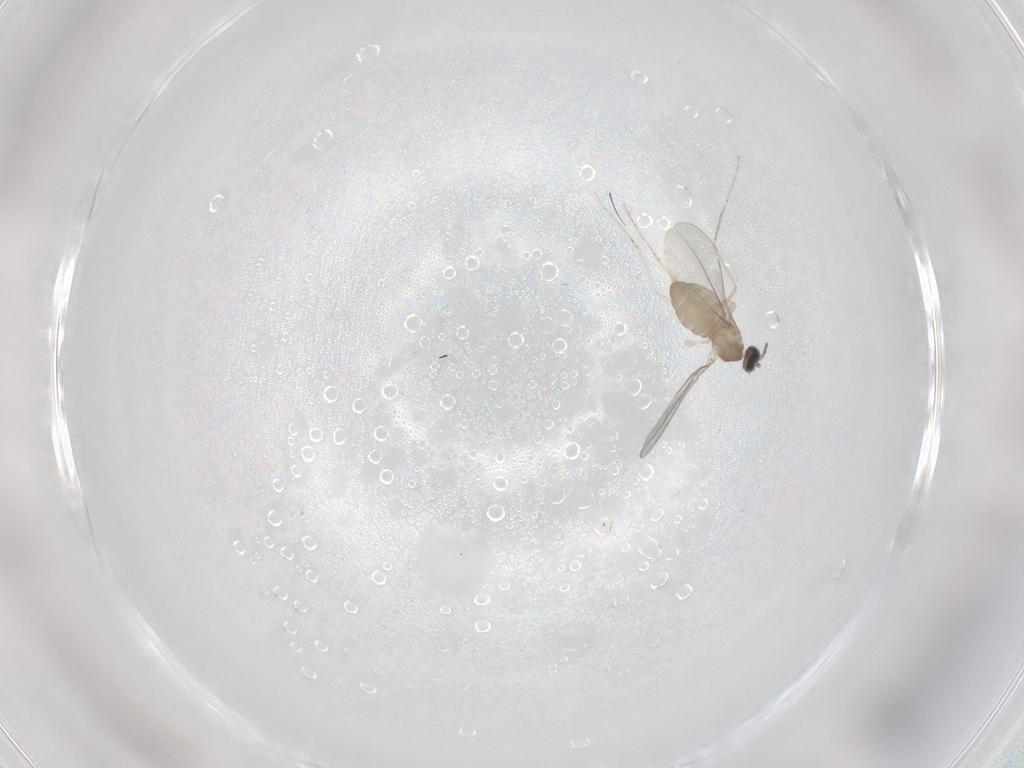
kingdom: Animalia
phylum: Arthropoda
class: Insecta
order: Diptera
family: Cecidomyiidae
